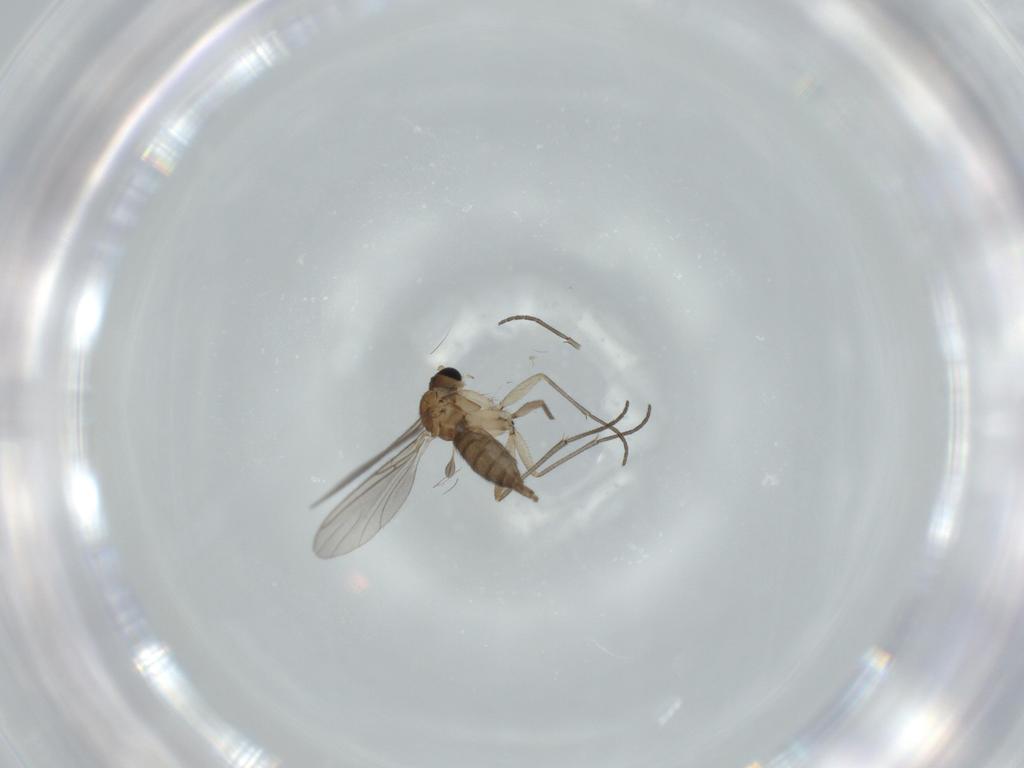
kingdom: Animalia
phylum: Arthropoda
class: Insecta
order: Diptera
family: Sciaridae
